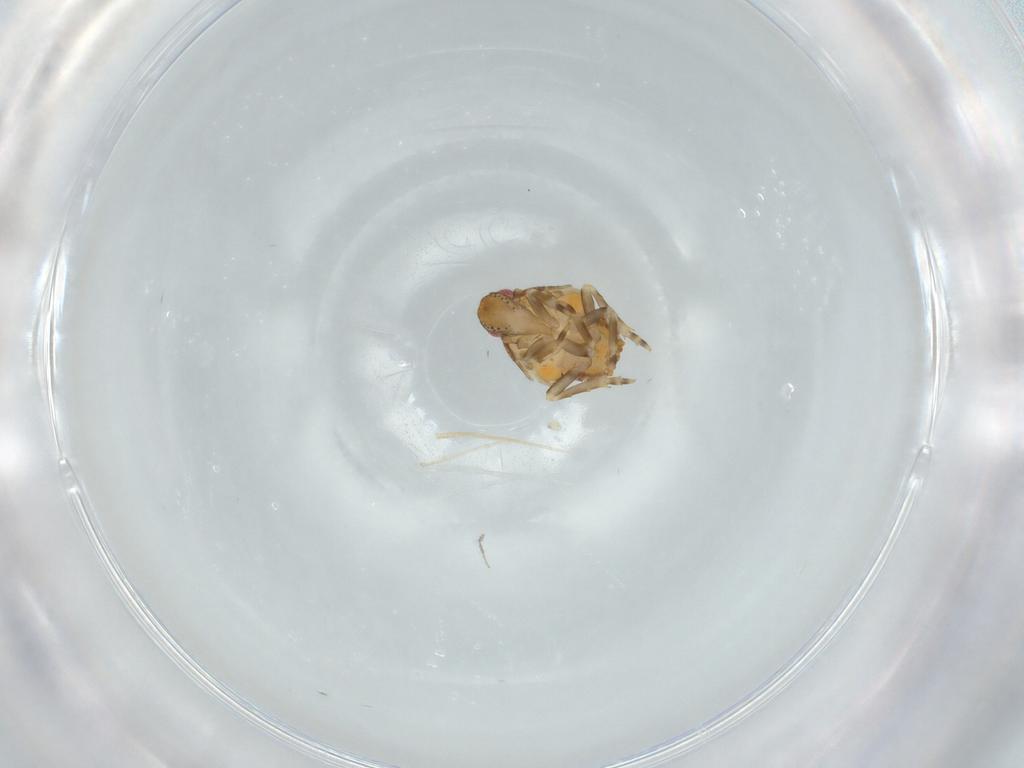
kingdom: Animalia
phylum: Arthropoda
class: Insecta
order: Hemiptera
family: Flatidae
